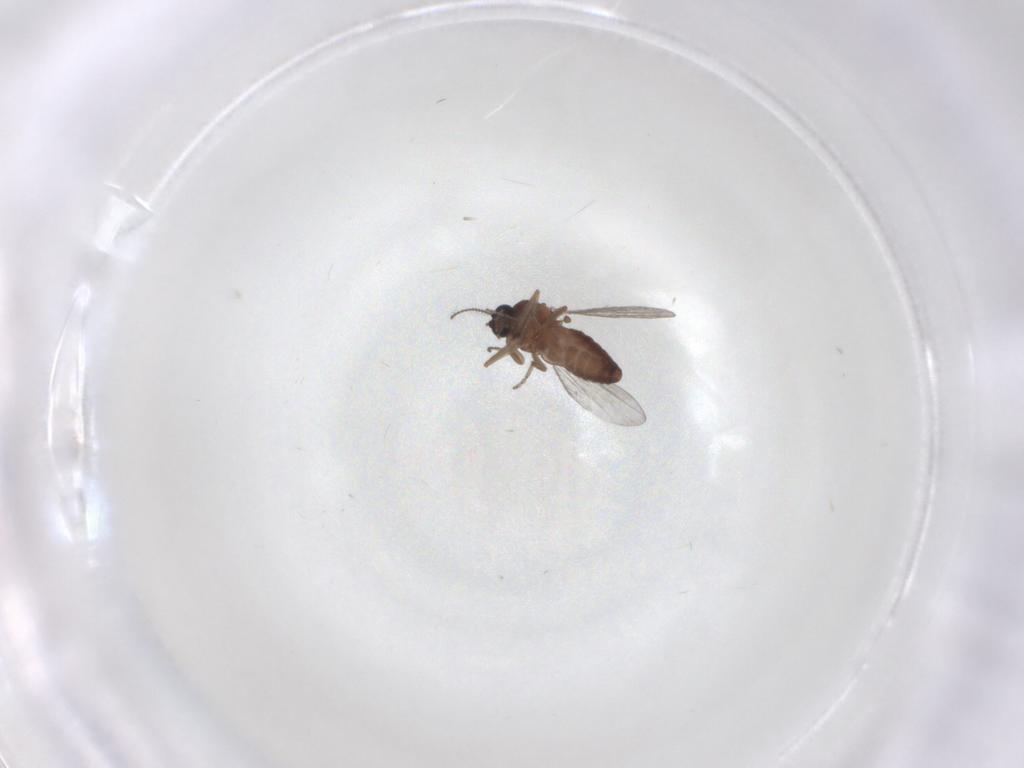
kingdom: Animalia
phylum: Arthropoda
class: Insecta
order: Diptera
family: Ceratopogonidae
